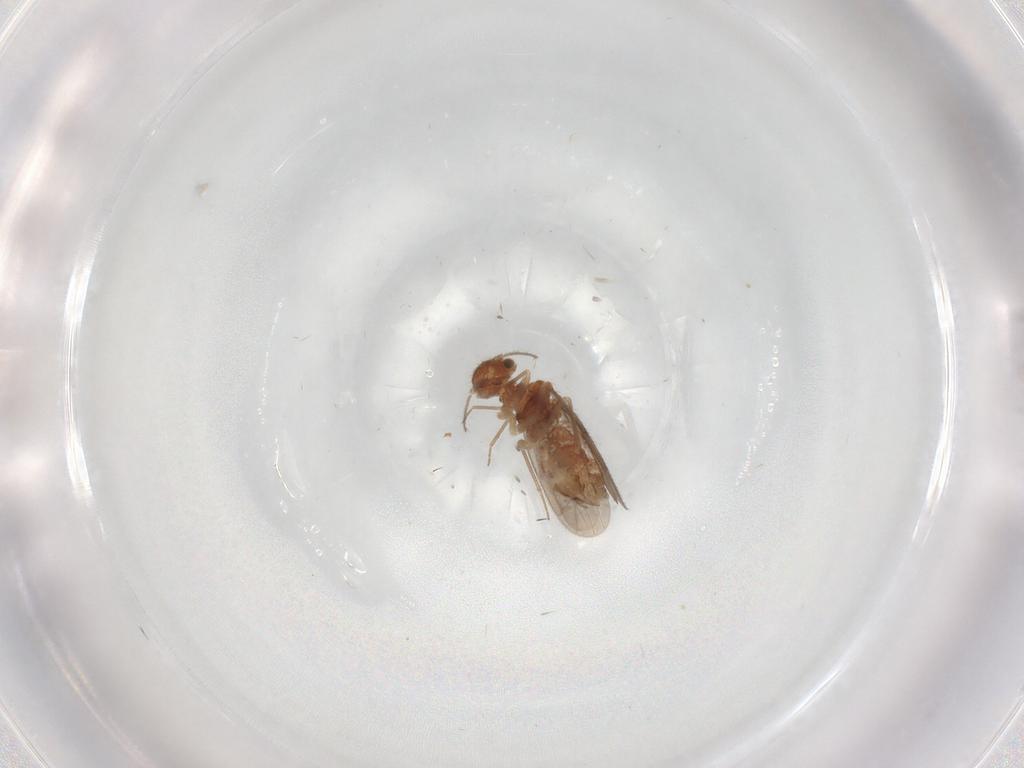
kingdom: Animalia
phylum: Arthropoda
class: Insecta
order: Psocodea
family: Ectopsocidae
